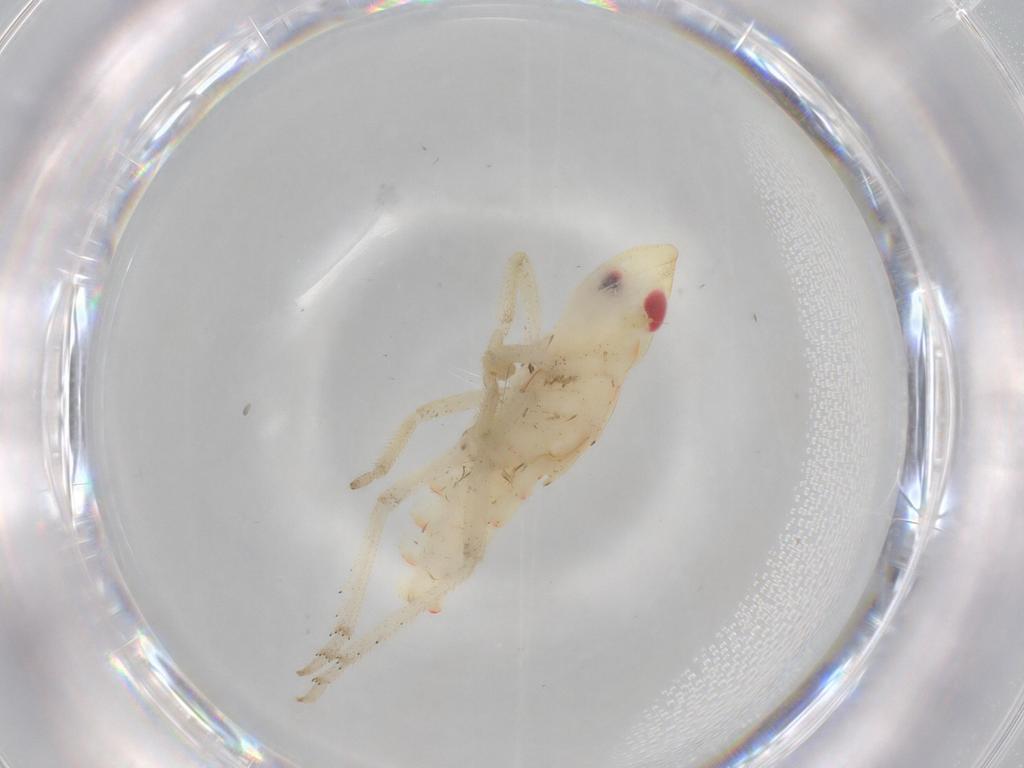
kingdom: Animalia
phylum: Arthropoda
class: Insecta
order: Hemiptera
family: Tropiduchidae
